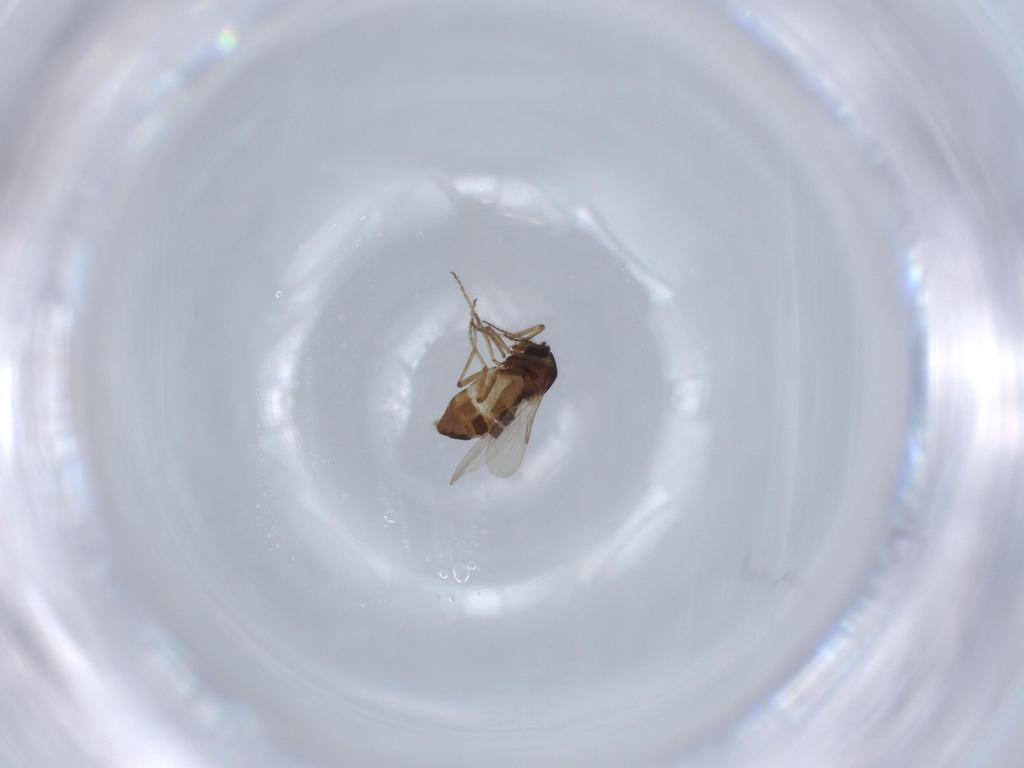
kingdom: Animalia
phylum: Arthropoda
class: Insecta
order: Diptera
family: Ceratopogonidae
